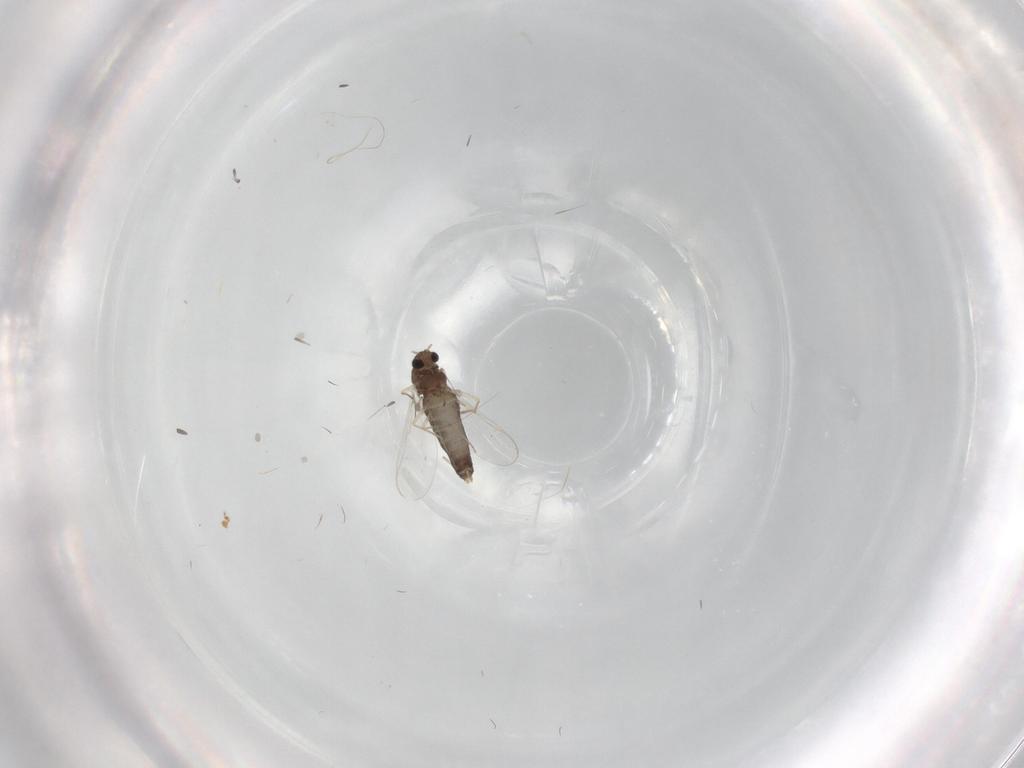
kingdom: Animalia
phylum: Arthropoda
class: Insecta
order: Diptera
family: Chironomidae
